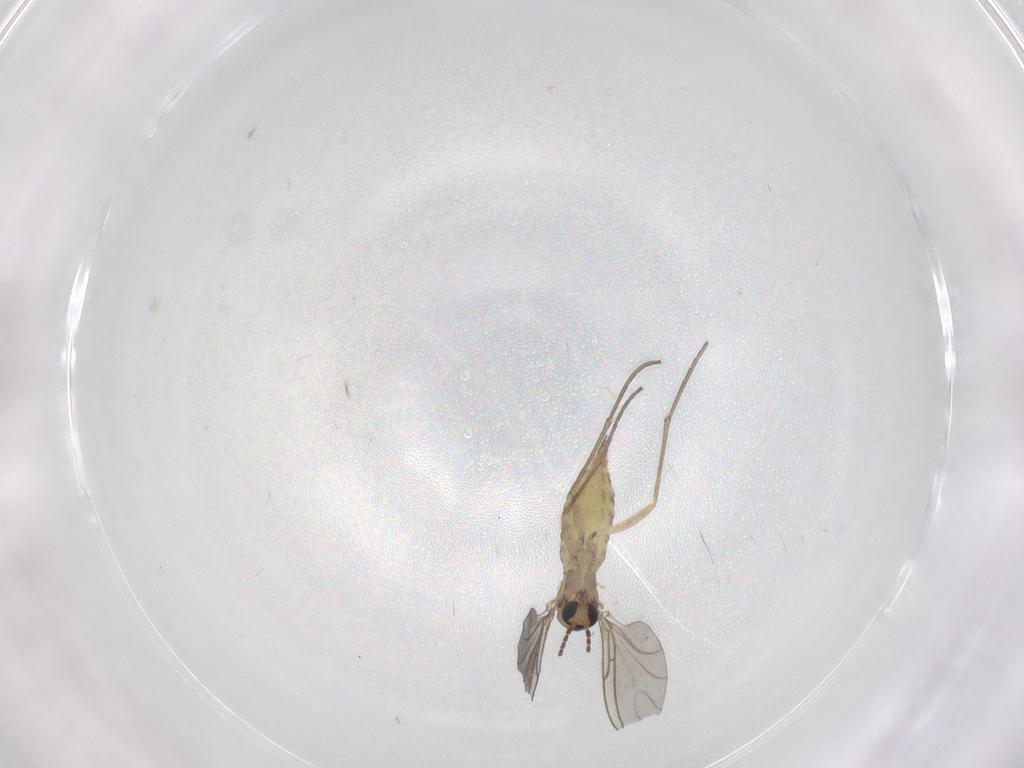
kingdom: Animalia
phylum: Arthropoda
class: Insecta
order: Diptera
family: Sciaridae
